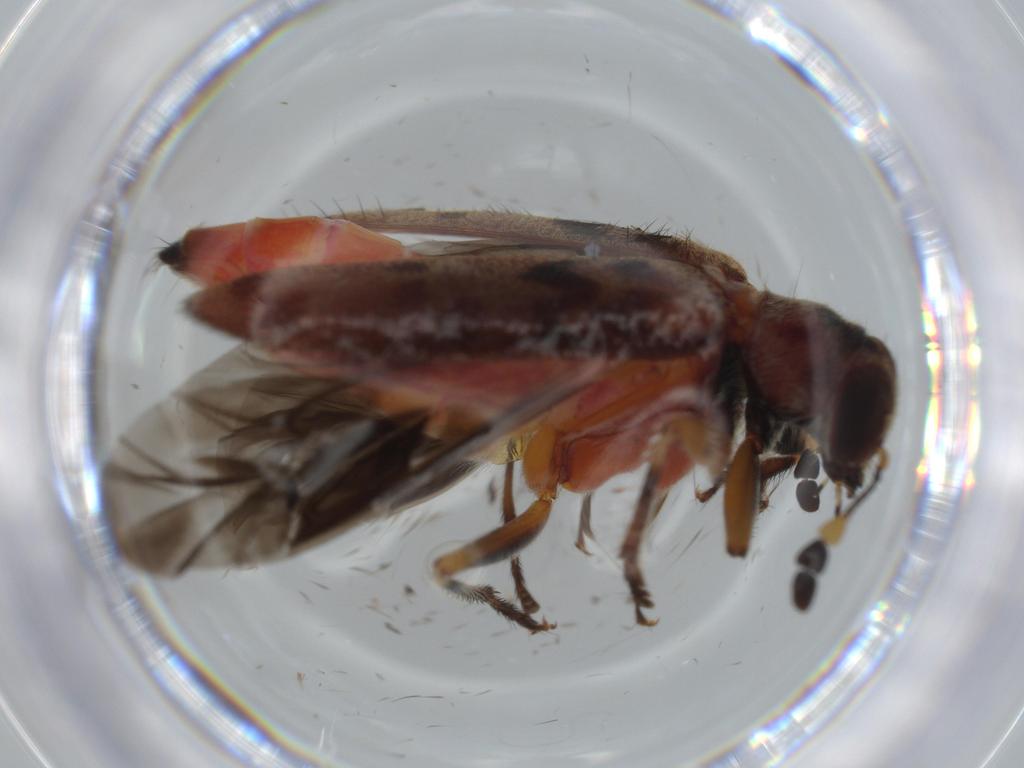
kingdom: Animalia
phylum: Arthropoda
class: Insecta
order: Coleoptera
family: Cleridae
